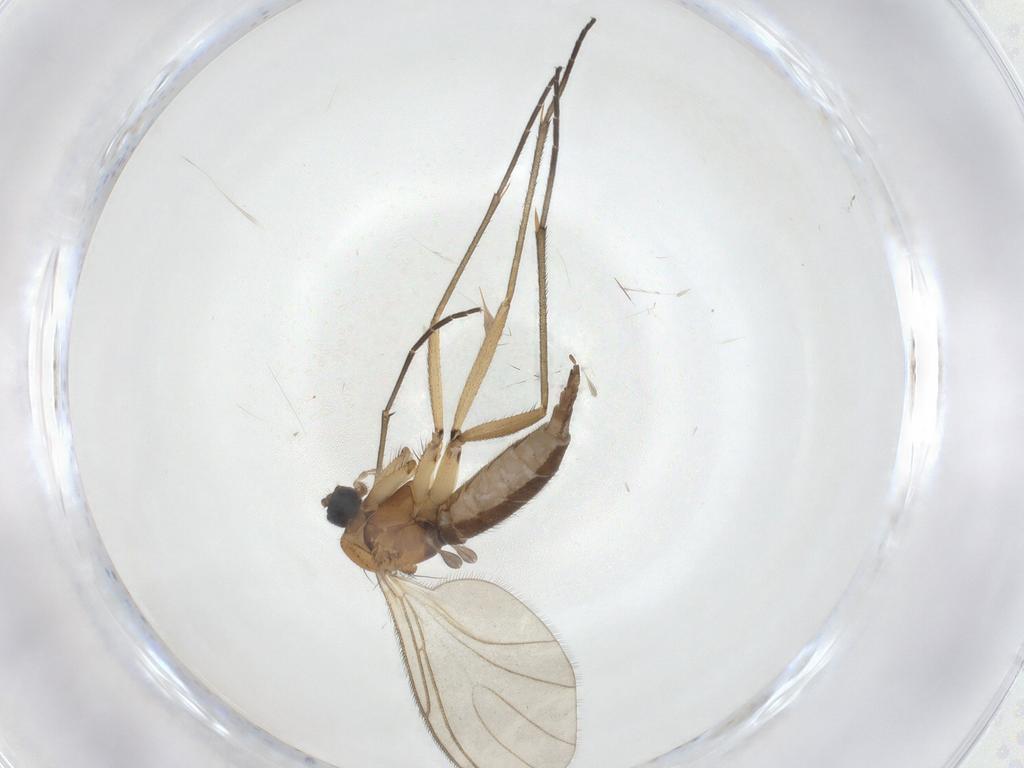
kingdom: Animalia
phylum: Arthropoda
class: Insecta
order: Diptera
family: Sciaridae
